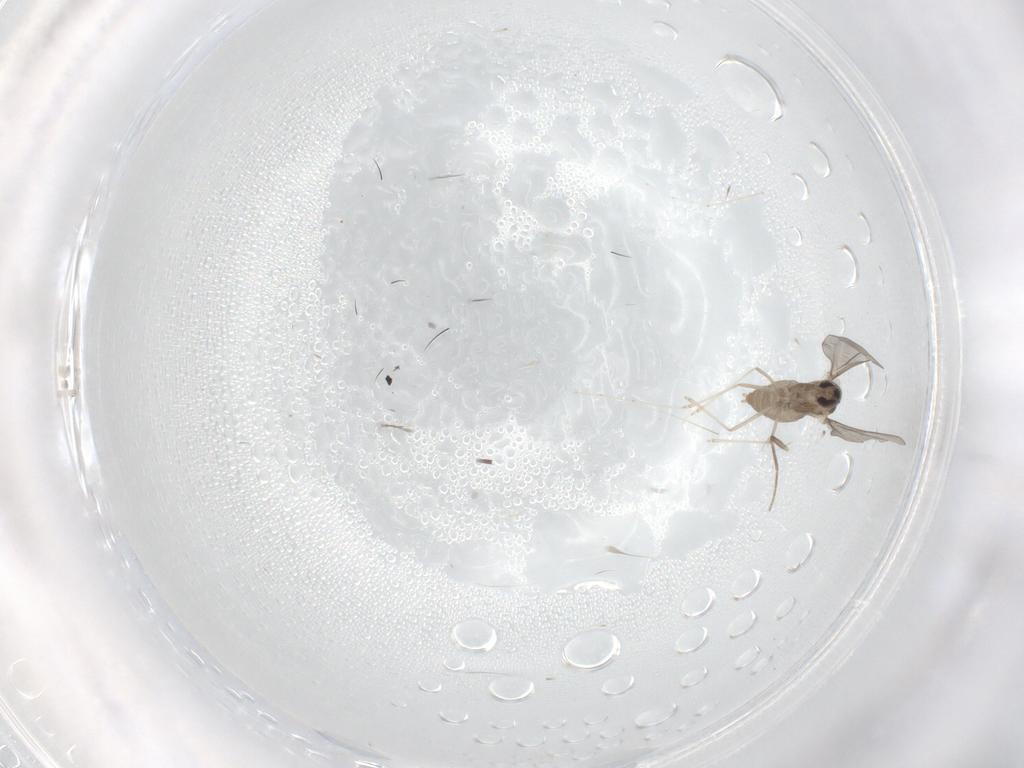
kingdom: Animalia
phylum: Arthropoda
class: Insecta
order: Diptera
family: Cecidomyiidae
